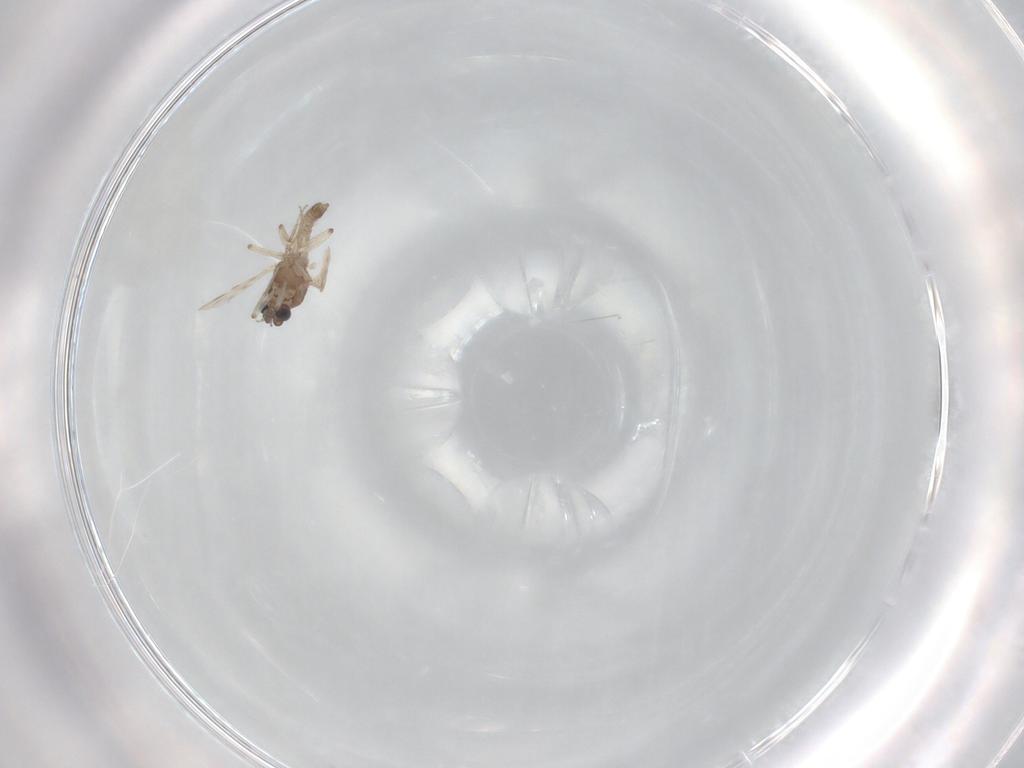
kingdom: Animalia
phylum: Arthropoda
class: Insecta
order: Diptera
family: Ceratopogonidae
